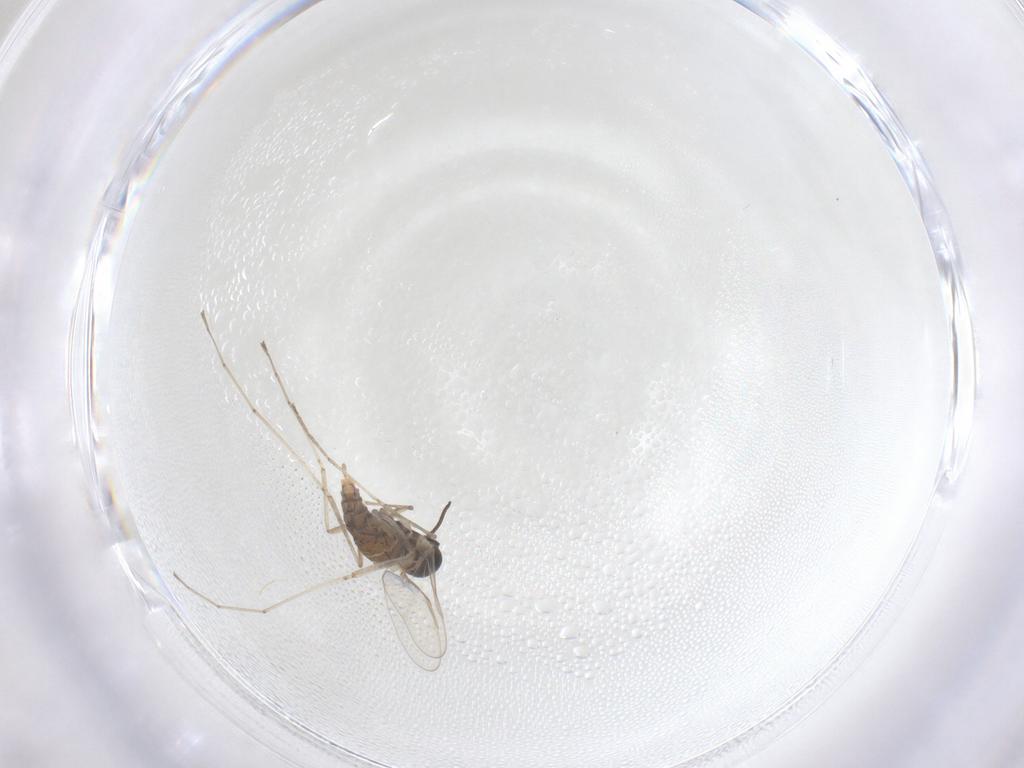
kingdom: Animalia
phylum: Arthropoda
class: Insecta
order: Diptera
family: Cecidomyiidae
